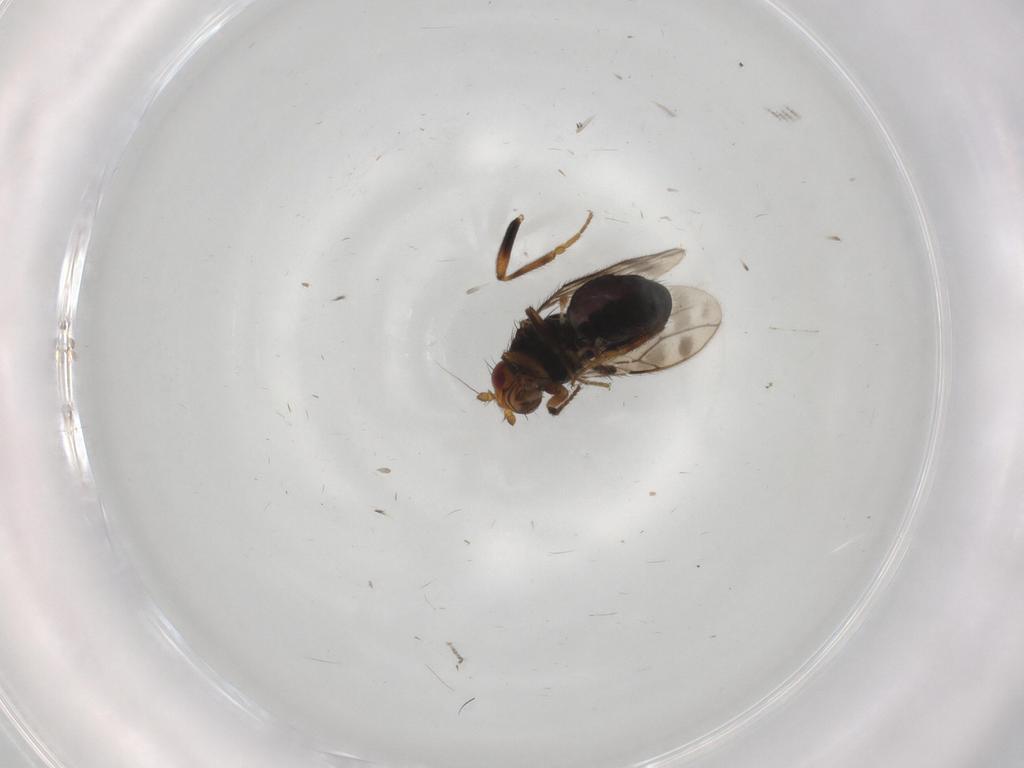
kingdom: Animalia
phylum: Arthropoda
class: Insecta
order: Diptera
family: Sphaeroceridae
